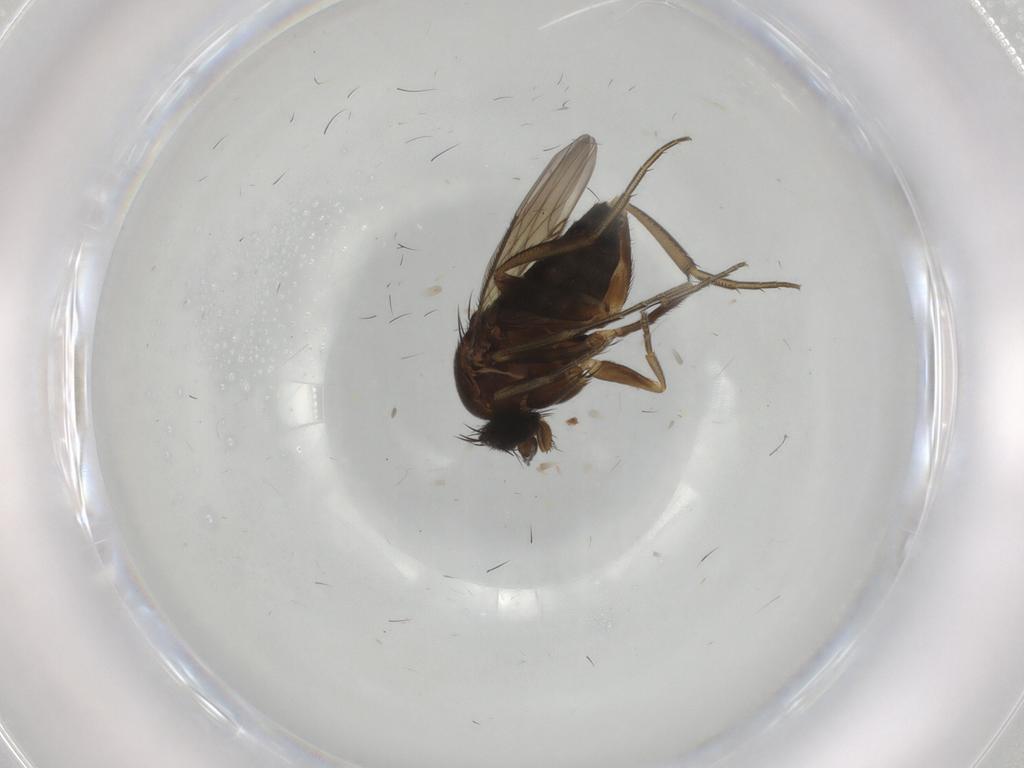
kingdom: Animalia
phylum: Arthropoda
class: Insecta
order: Diptera
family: Phoridae
